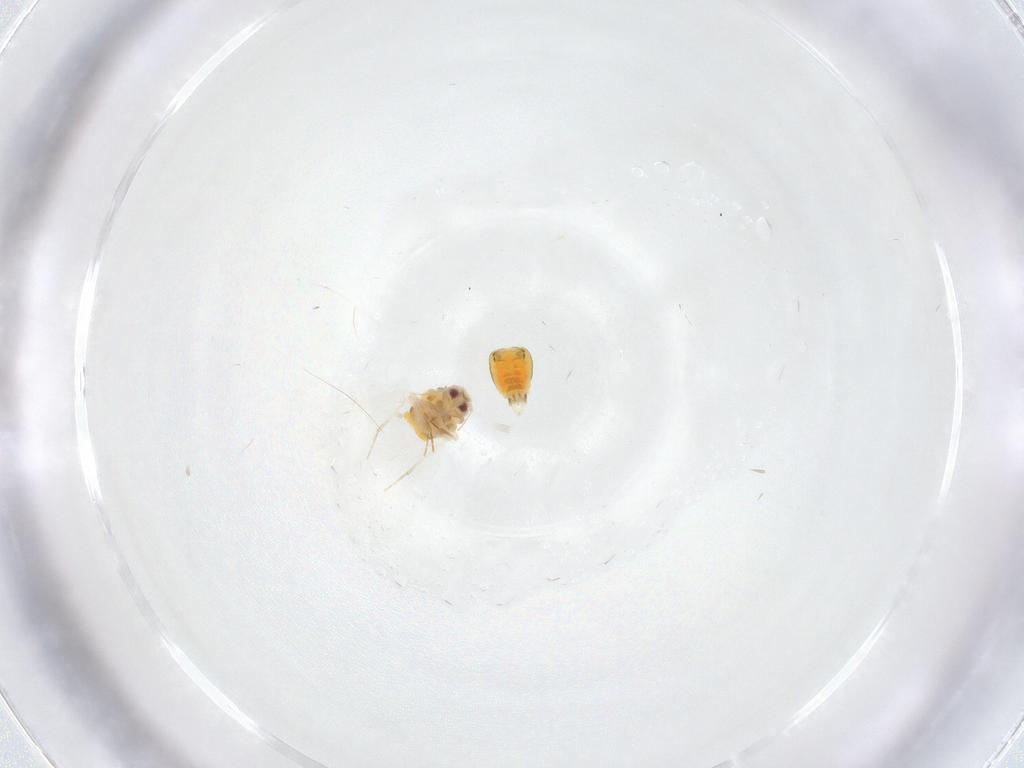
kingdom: Animalia
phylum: Arthropoda
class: Insecta
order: Hemiptera
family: Aleyrodidae
